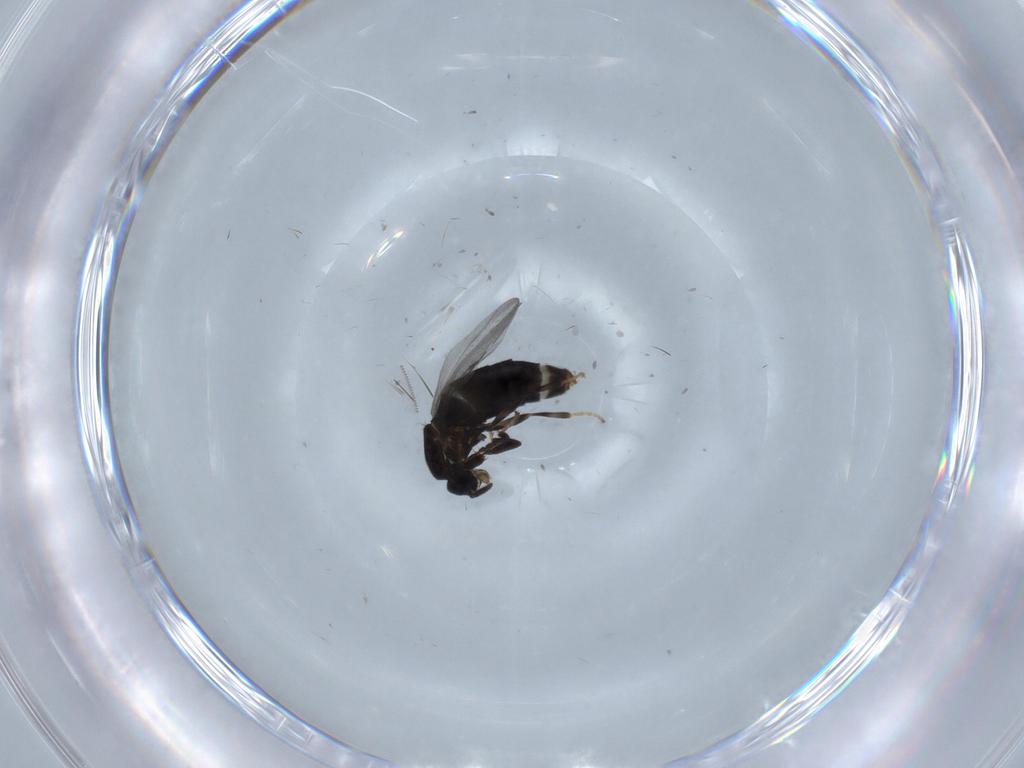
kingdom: Animalia
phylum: Arthropoda
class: Insecta
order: Diptera
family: Scatopsidae
